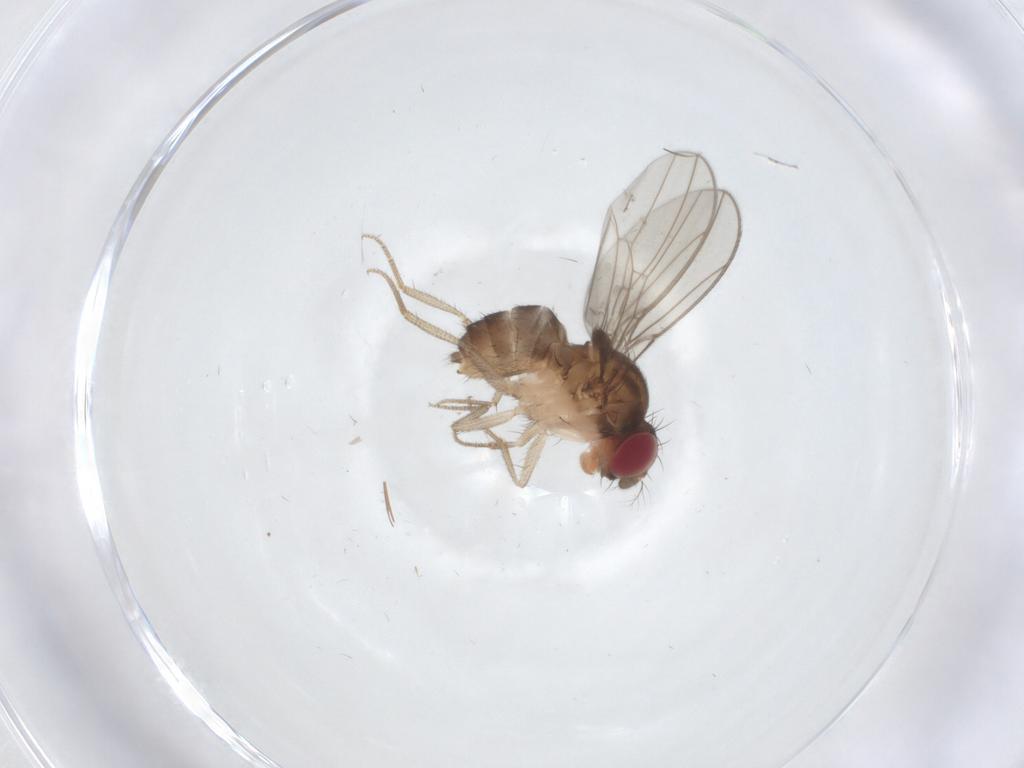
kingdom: Animalia
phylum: Arthropoda
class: Insecta
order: Diptera
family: Drosophilidae
